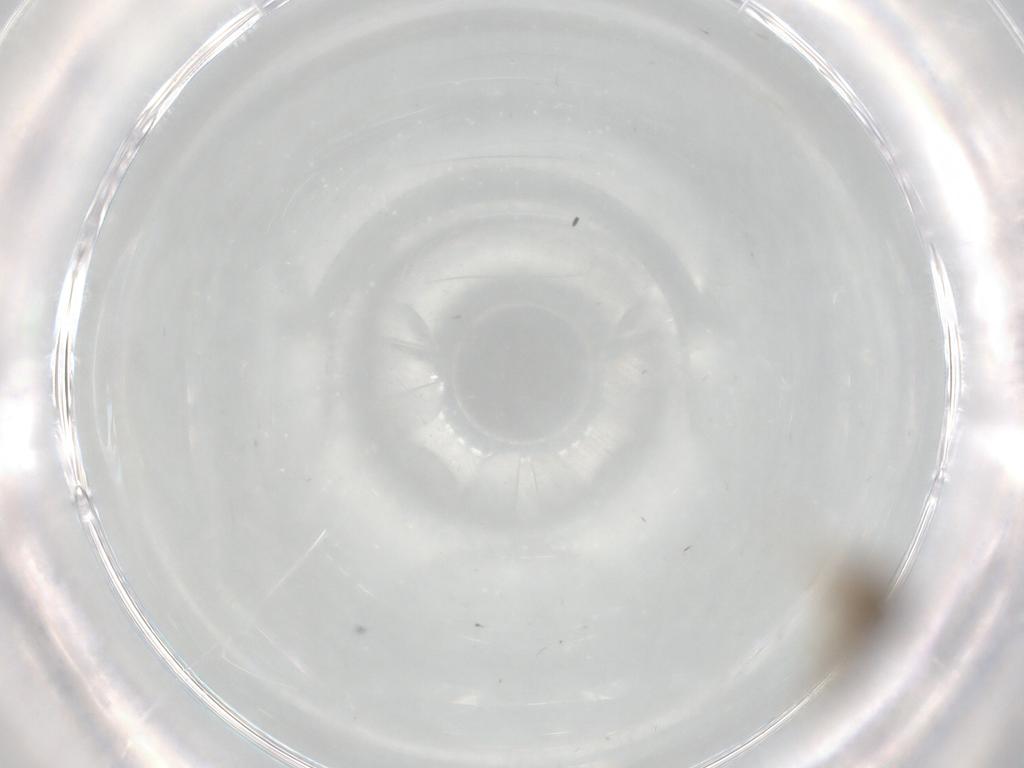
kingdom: Animalia
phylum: Arthropoda
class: Insecta
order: Diptera
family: Ceratopogonidae
